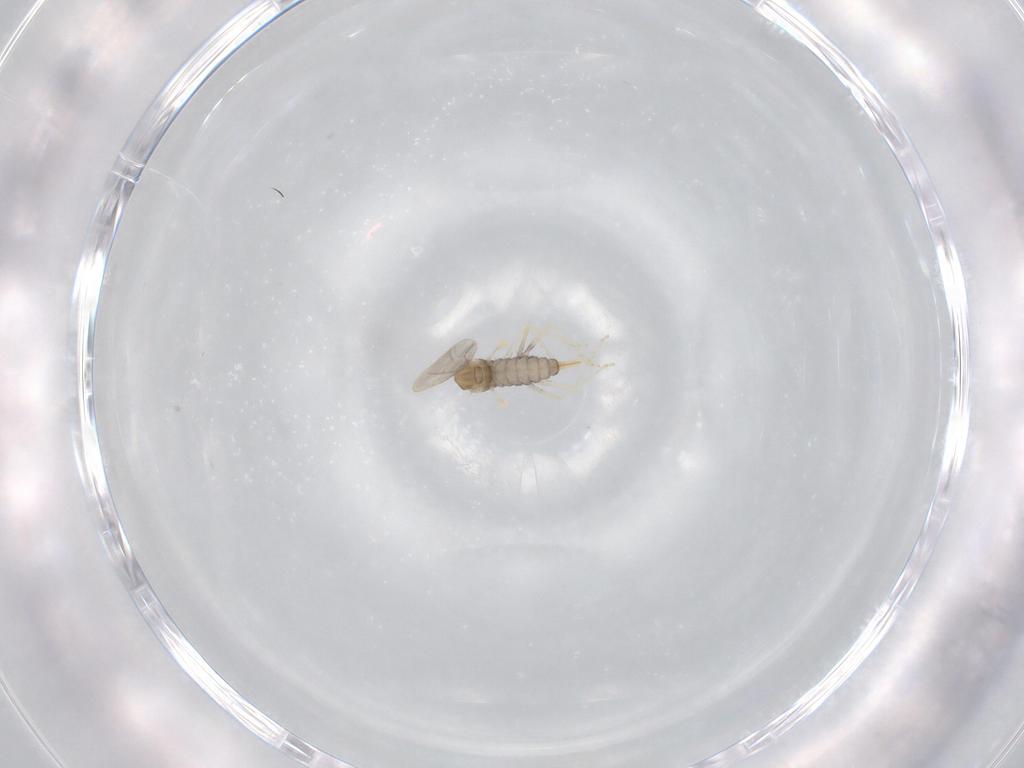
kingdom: Animalia
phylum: Arthropoda
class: Insecta
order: Diptera
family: Cecidomyiidae
